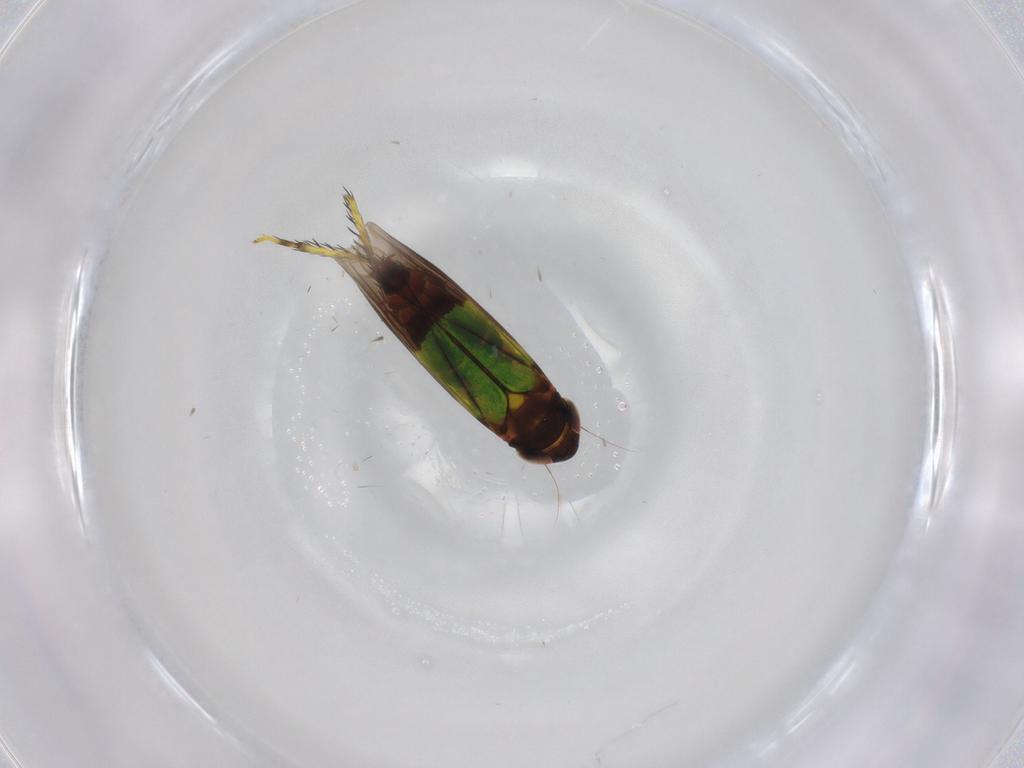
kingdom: Animalia
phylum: Arthropoda
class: Insecta
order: Hemiptera
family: Cicadellidae
